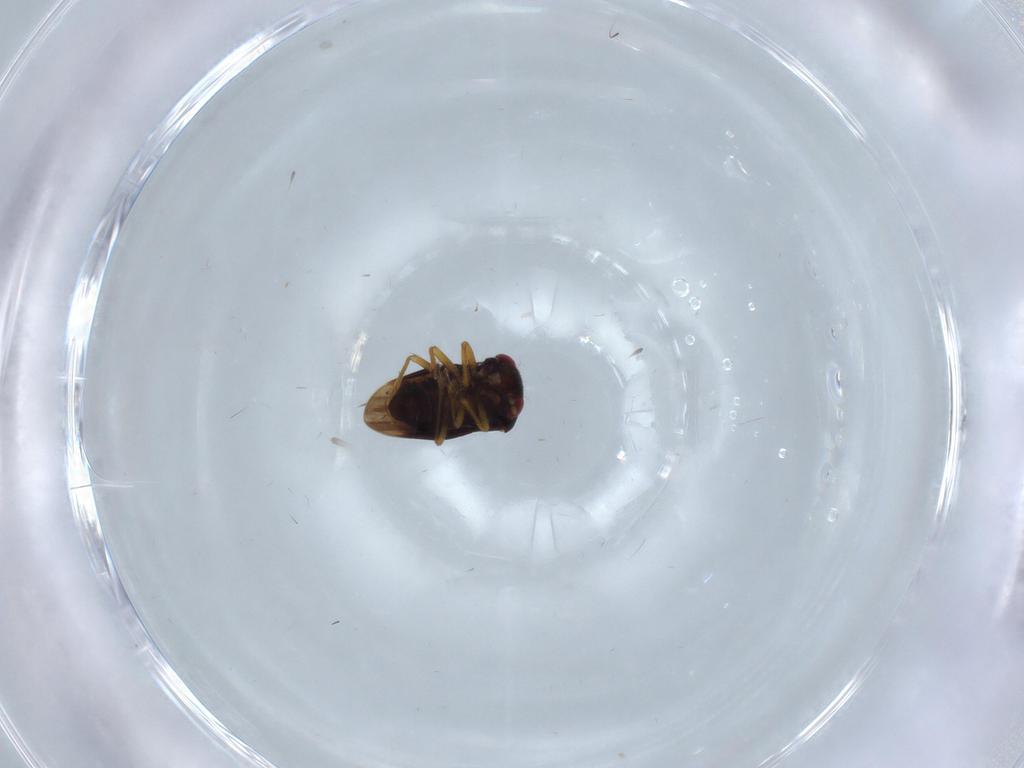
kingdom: Animalia
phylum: Arthropoda
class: Insecta
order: Hemiptera
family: Schizopteridae
